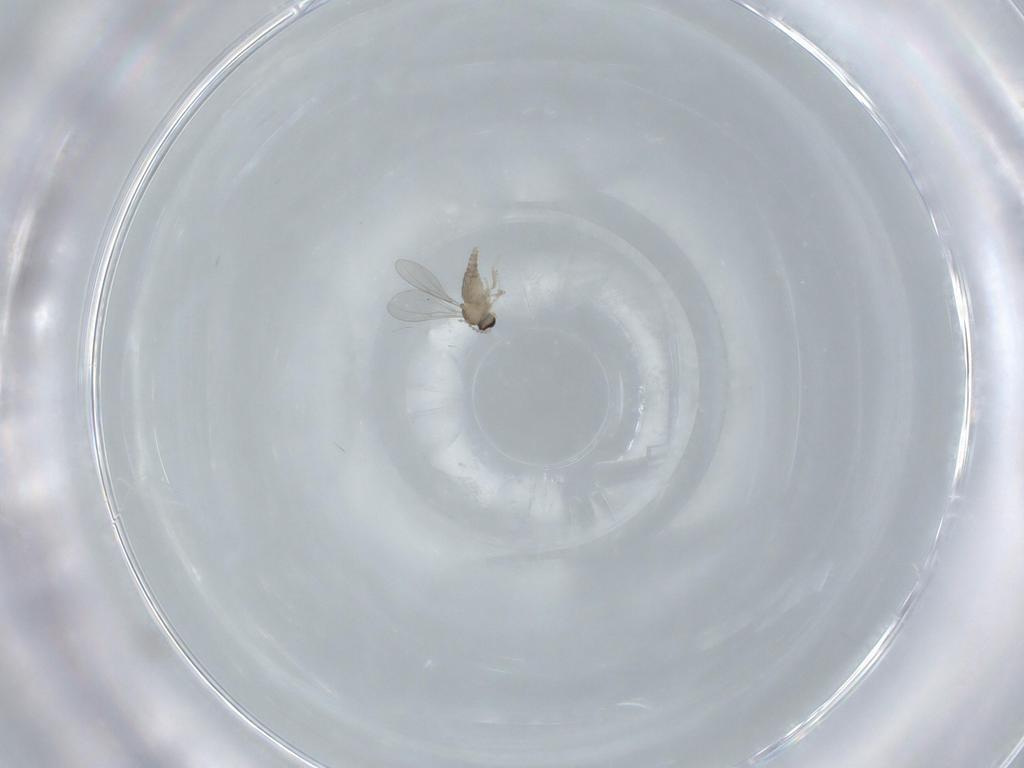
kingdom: Animalia
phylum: Arthropoda
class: Insecta
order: Diptera
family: Cecidomyiidae
